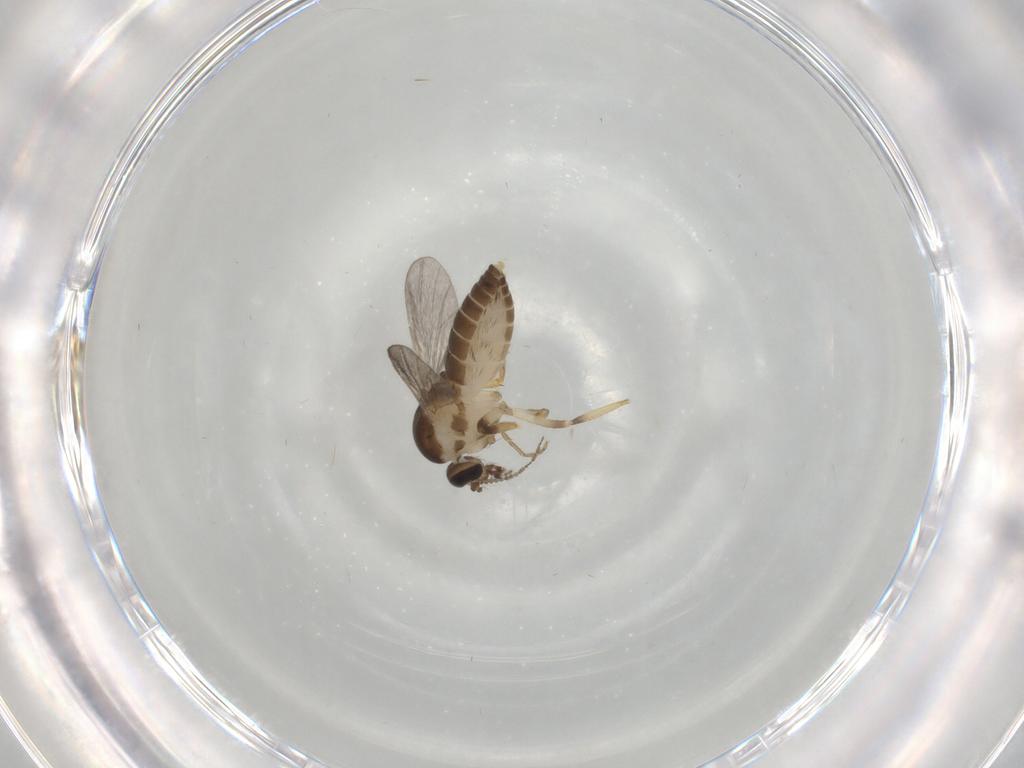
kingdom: Animalia
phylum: Arthropoda
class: Insecta
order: Diptera
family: Ceratopogonidae
